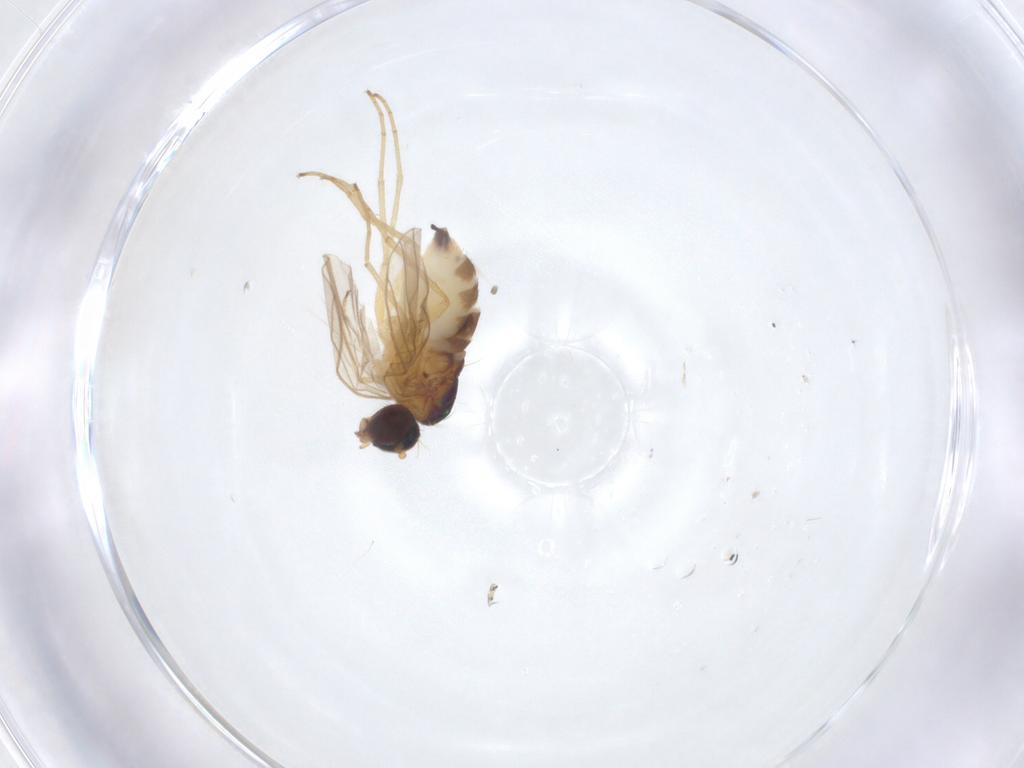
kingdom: Animalia
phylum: Arthropoda
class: Insecta
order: Diptera
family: Dolichopodidae
